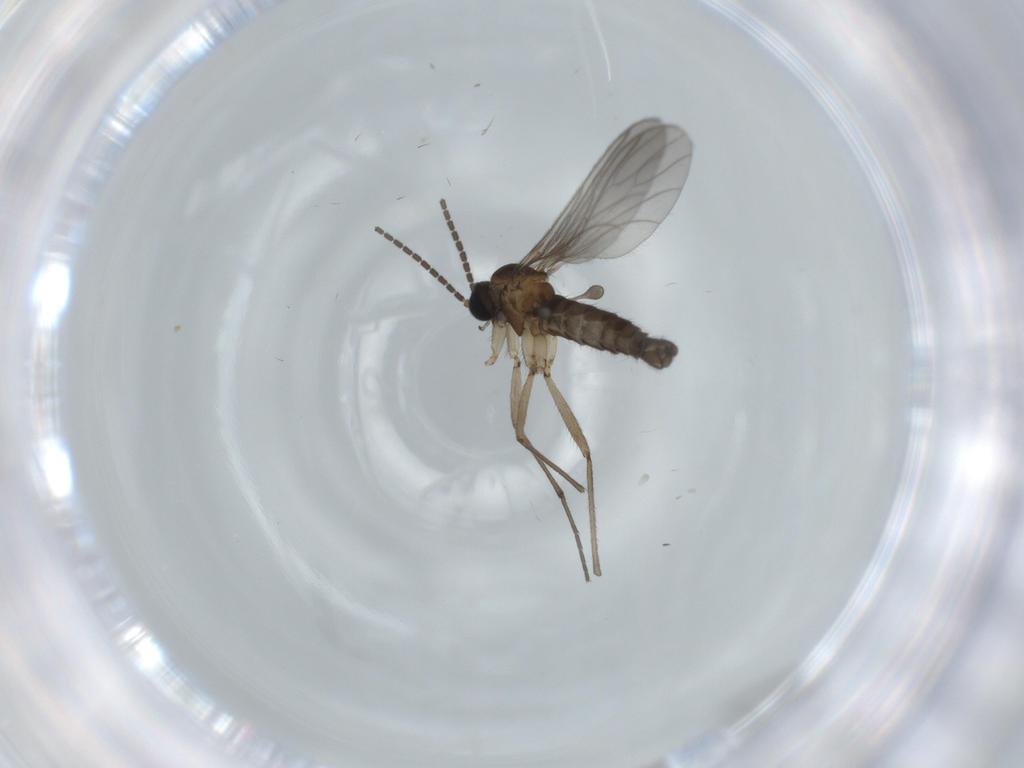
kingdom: Animalia
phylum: Arthropoda
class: Insecta
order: Diptera
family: Sciaridae
